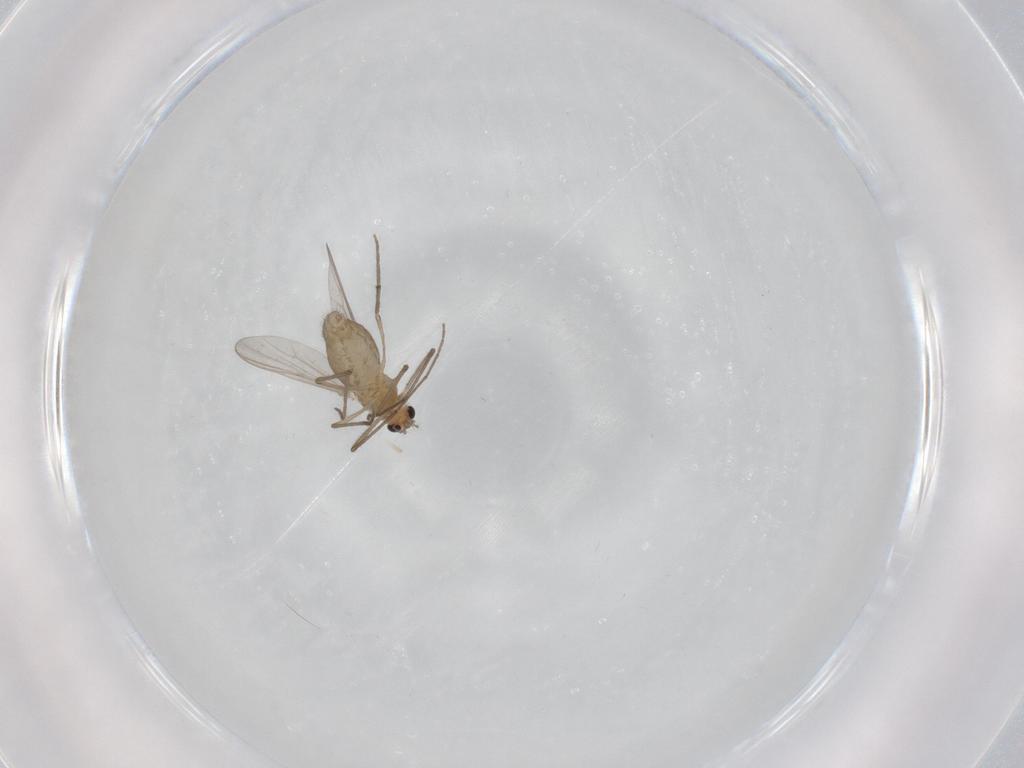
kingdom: Animalia
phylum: Arthropoda
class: Insecta
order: Diptera
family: Chironomidae
